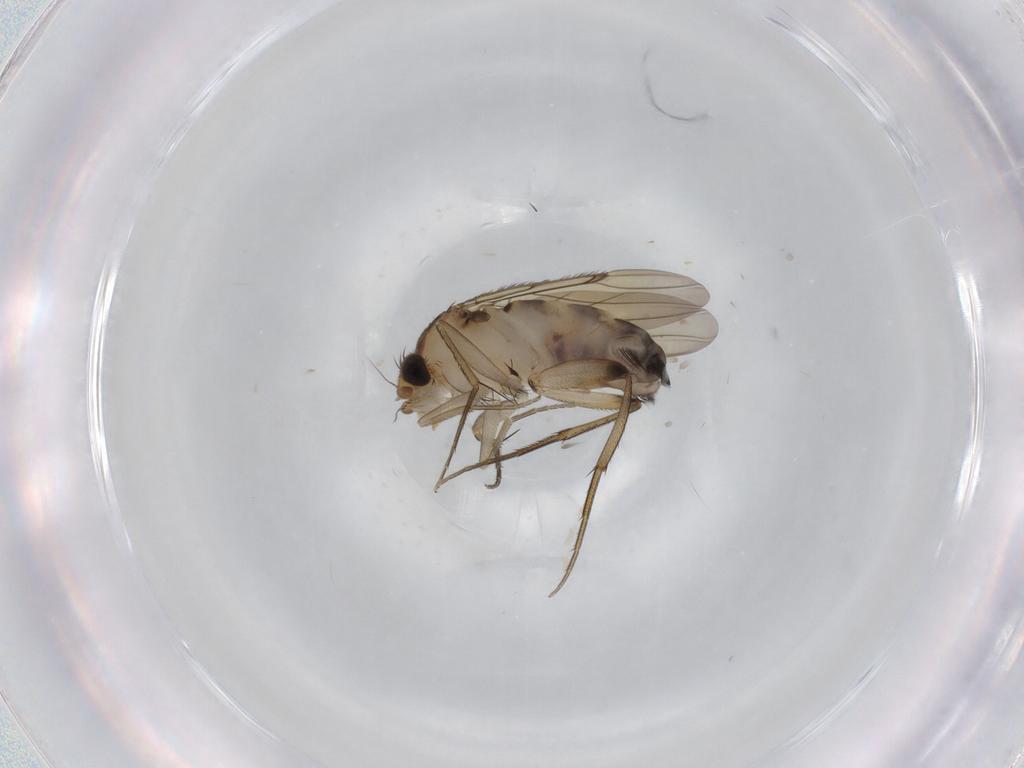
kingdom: Animalia
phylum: Arthropoda
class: Insecta
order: Diptera
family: Phoridae
